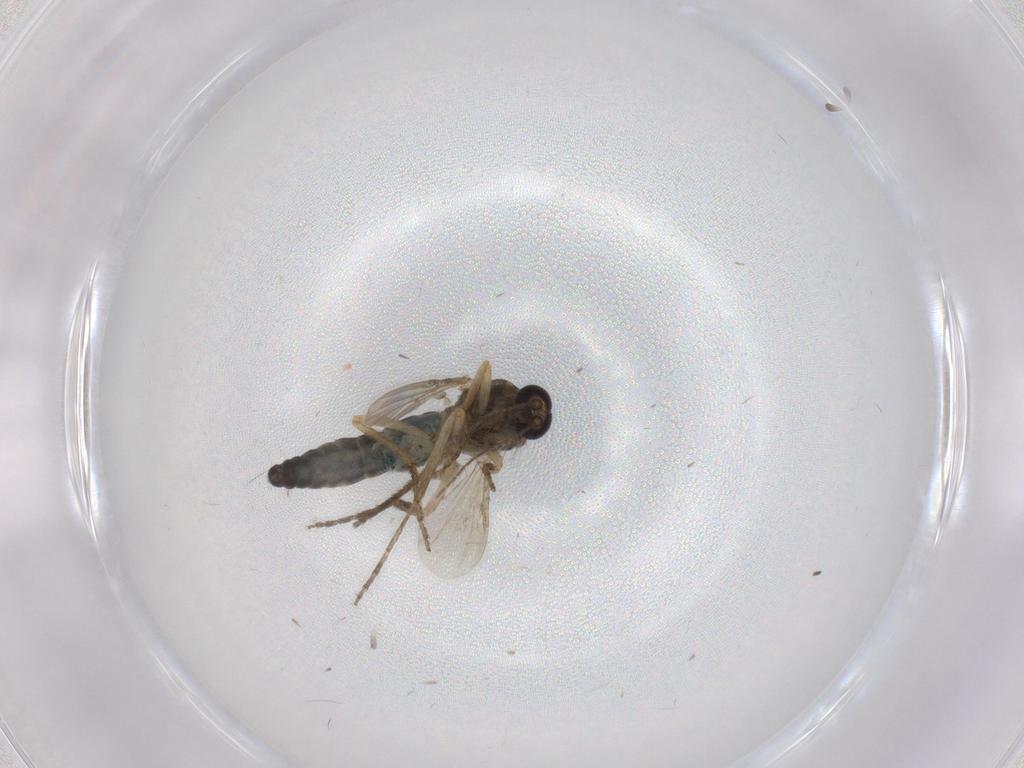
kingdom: Animalia
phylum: Arthropoda
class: Insecta
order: Diptera
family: Ceratopogonidae
